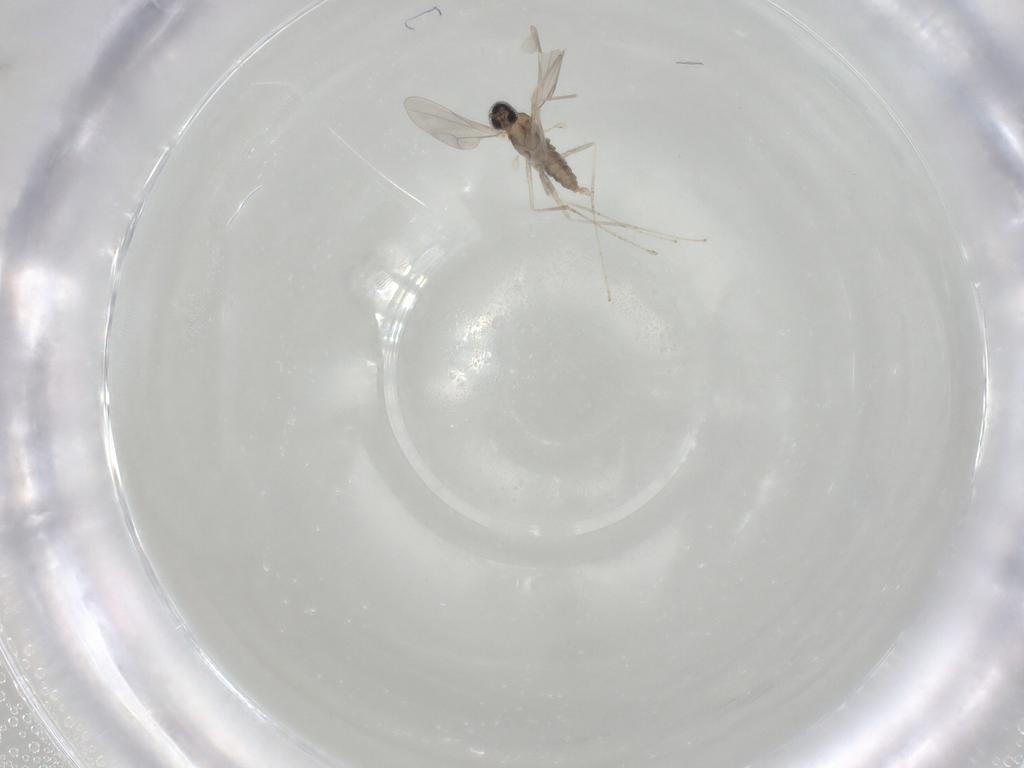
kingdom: Animalia
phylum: Arthropoda
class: Insecta
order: Diptera
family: Cecidomyiidae
